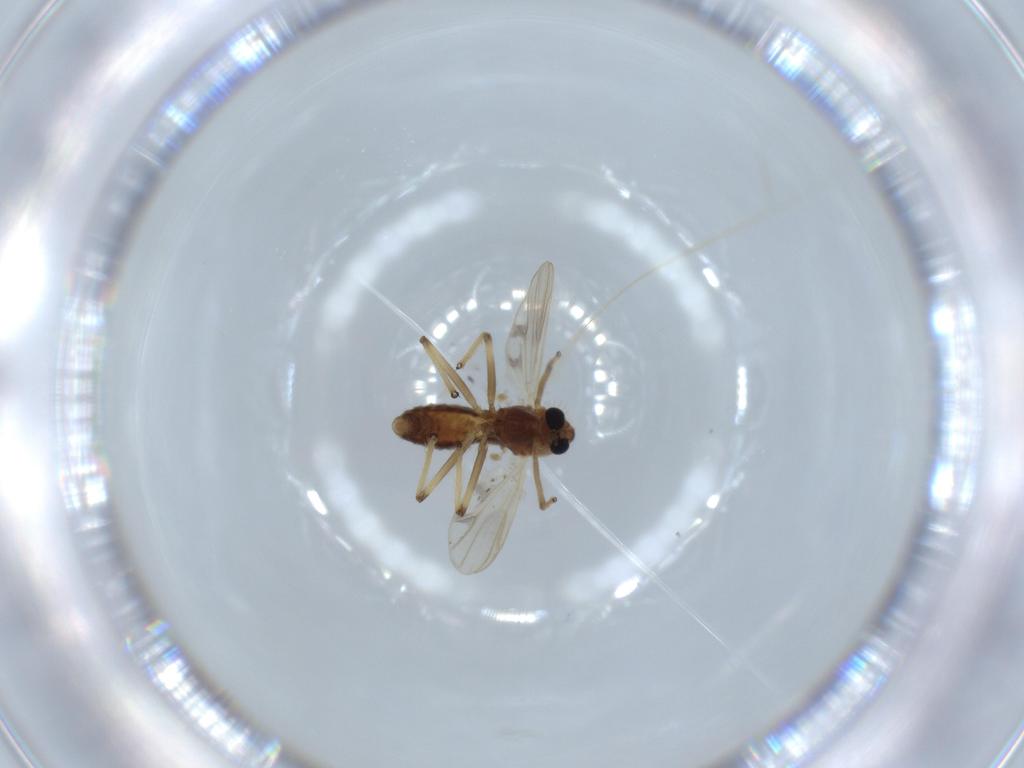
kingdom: Animalia
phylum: Arthropoda
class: Insecta
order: Diptera
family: Chironomidae
